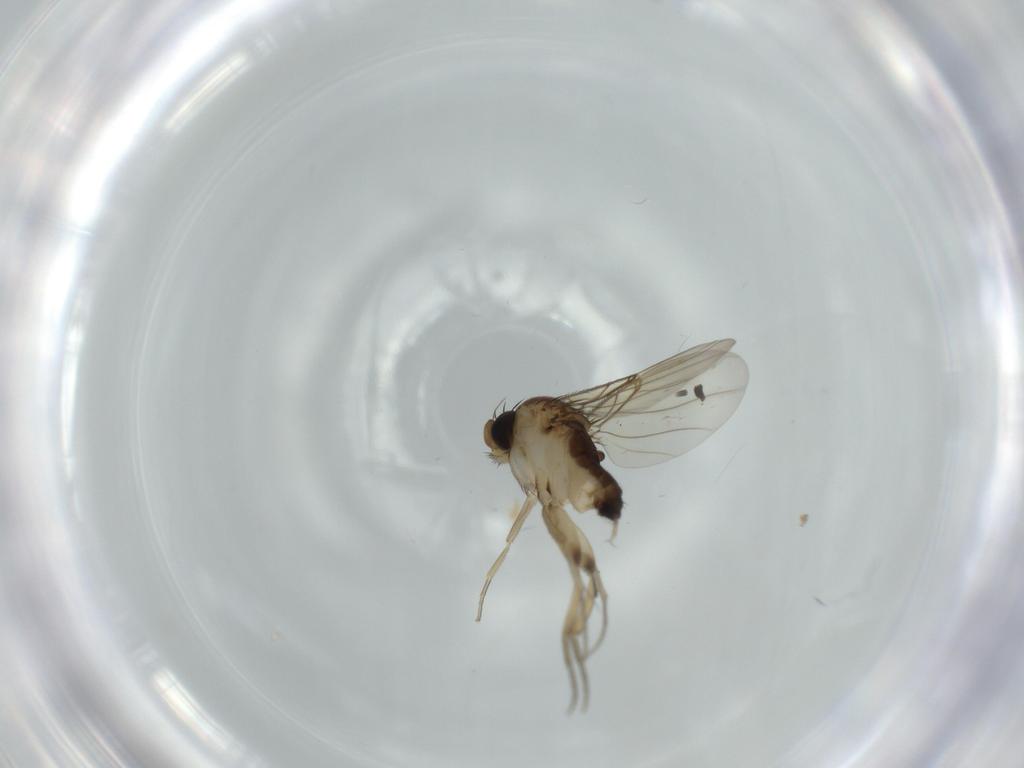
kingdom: Animalia
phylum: Arthropoda
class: Insecta
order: Diptera
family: Phoridae
